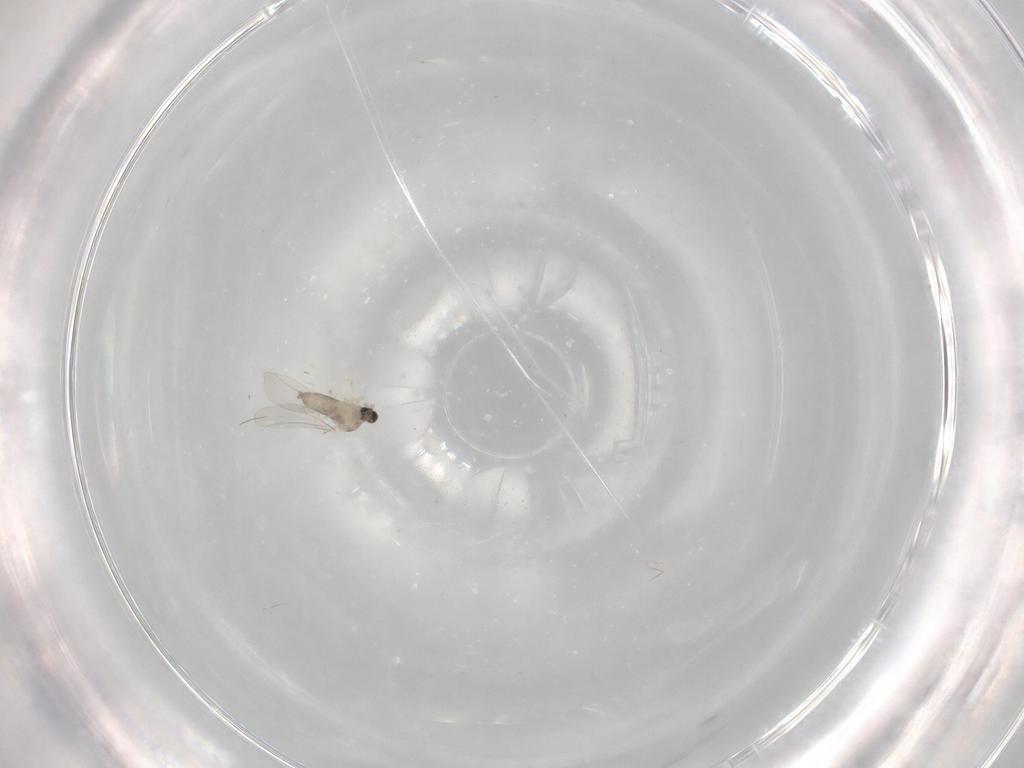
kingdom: Animalia
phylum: Arthropoda
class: Insecta
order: Diptera
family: Cecidomyiidae
